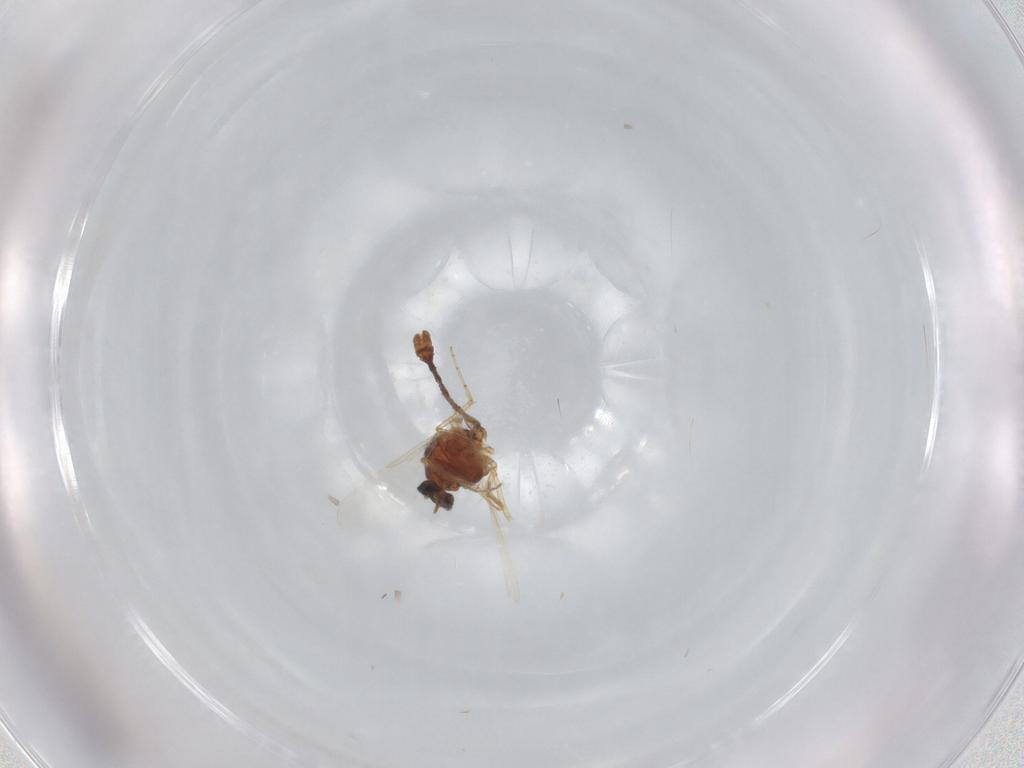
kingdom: Animalia
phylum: Arthropoda
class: Insecta
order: Diptera
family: Ceratopogonidae
